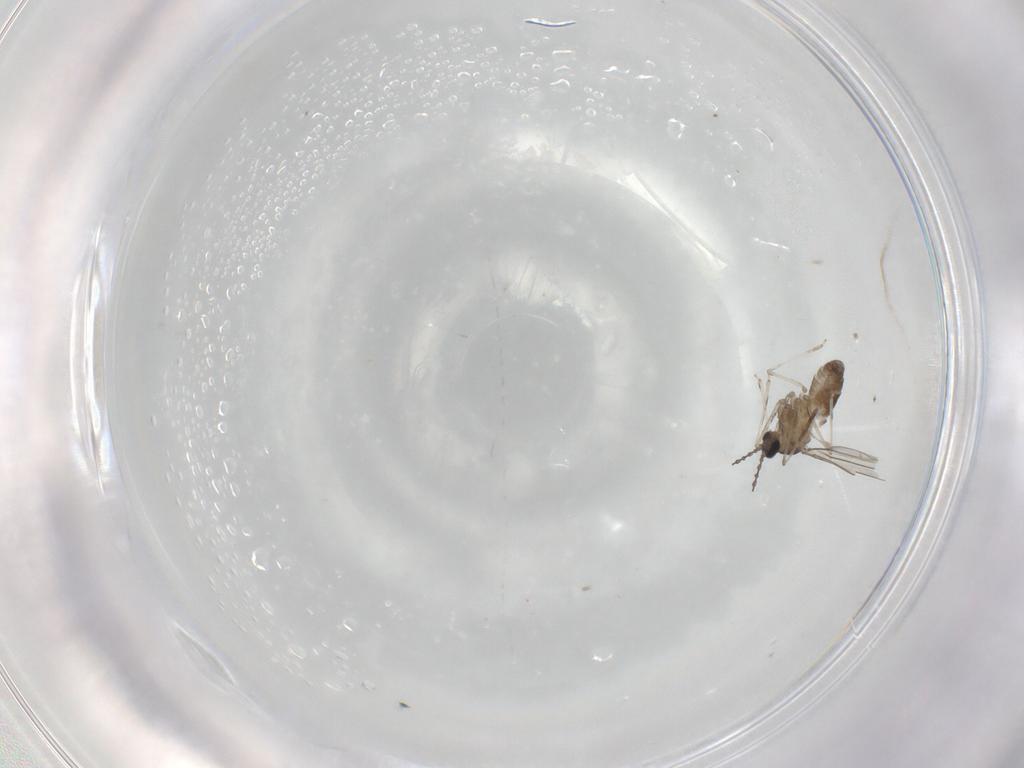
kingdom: Animalia
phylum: Arthropoda
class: Insecta
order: Diptera
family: Cecidomyiidae
